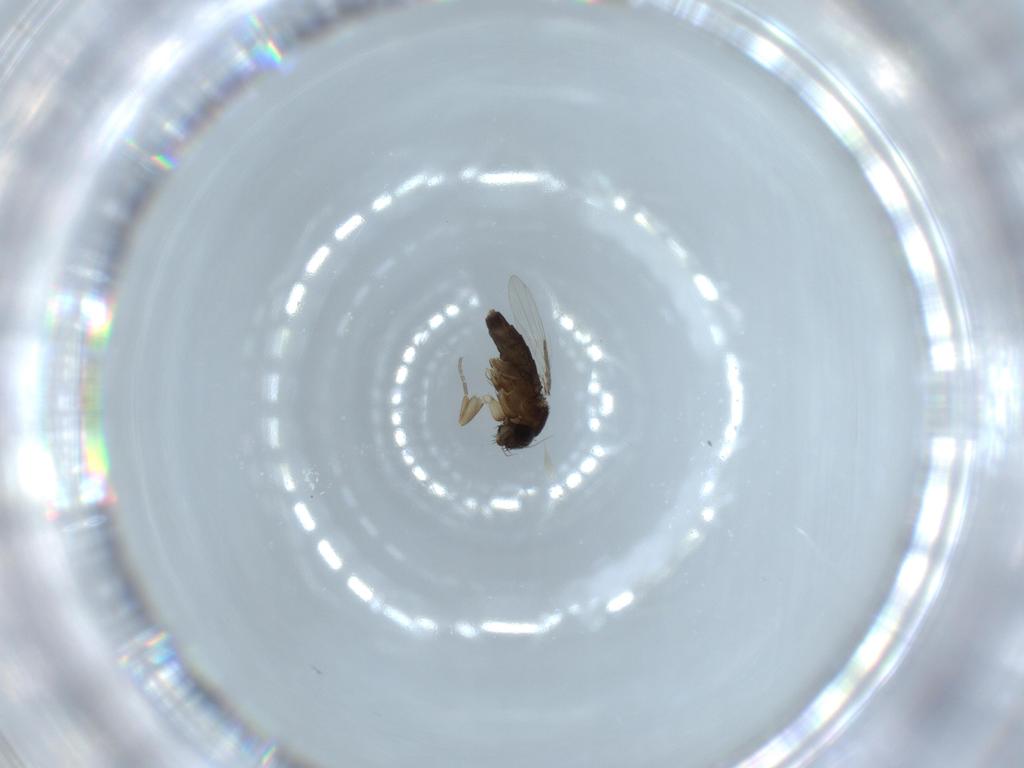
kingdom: Animalia
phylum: Arthropoda
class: Insecta
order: Diptera
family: Phoridae
